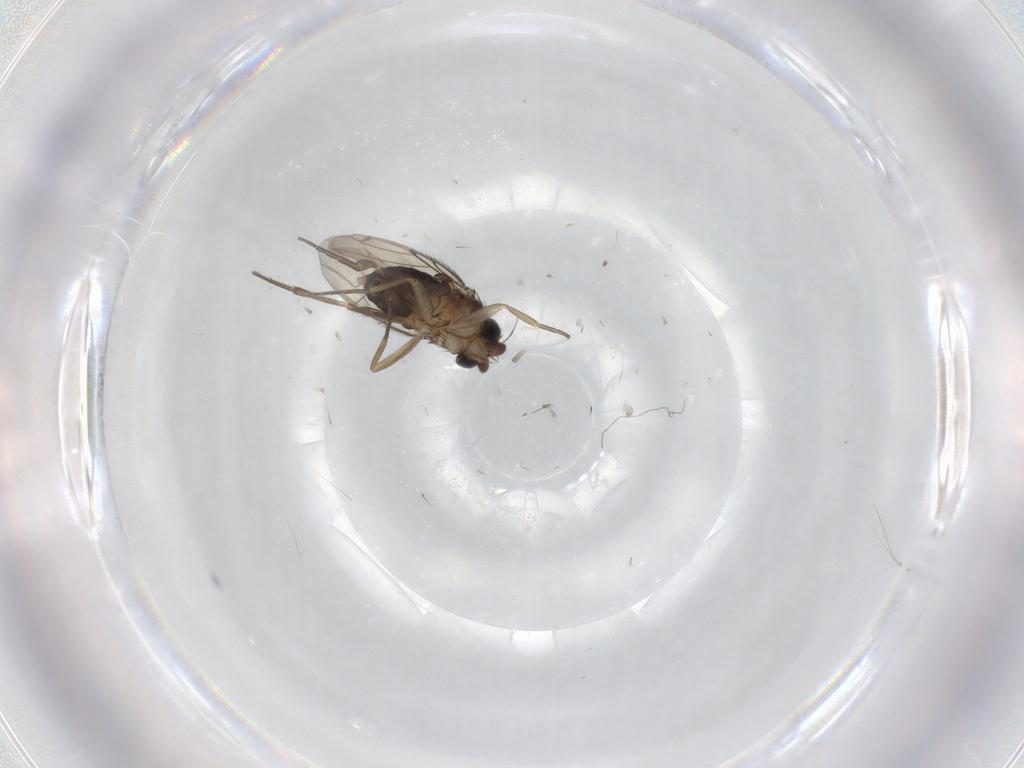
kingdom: Animalia
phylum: Arthropoda
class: Insecta
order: Diptera
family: Phoridae
